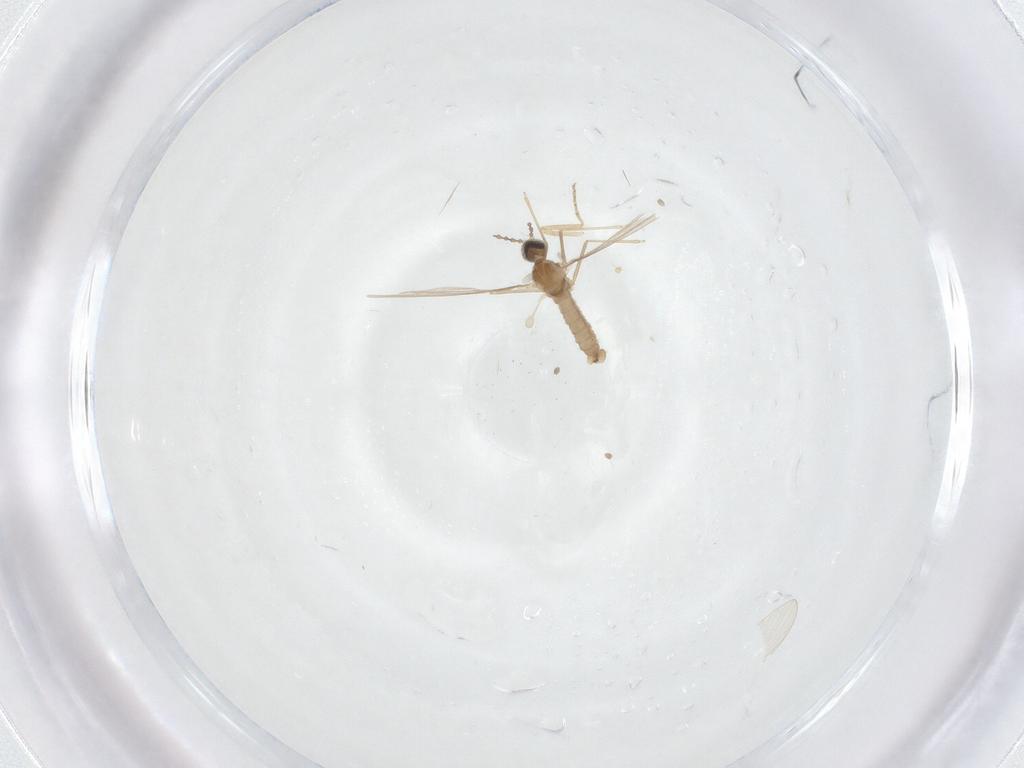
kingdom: Animalia
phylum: Arthropoda
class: Insecta
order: Diptera
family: Cecidomyiidae
